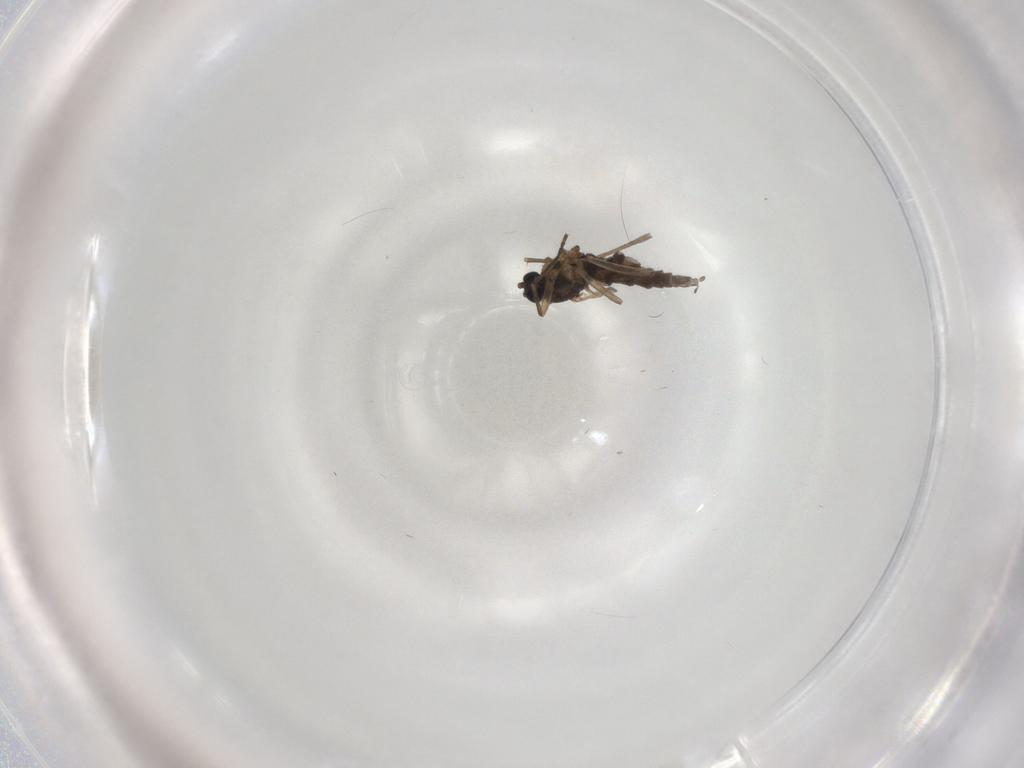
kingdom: Animalia
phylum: Arthropoda
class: Insecta
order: Diptera
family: Sciaridae
